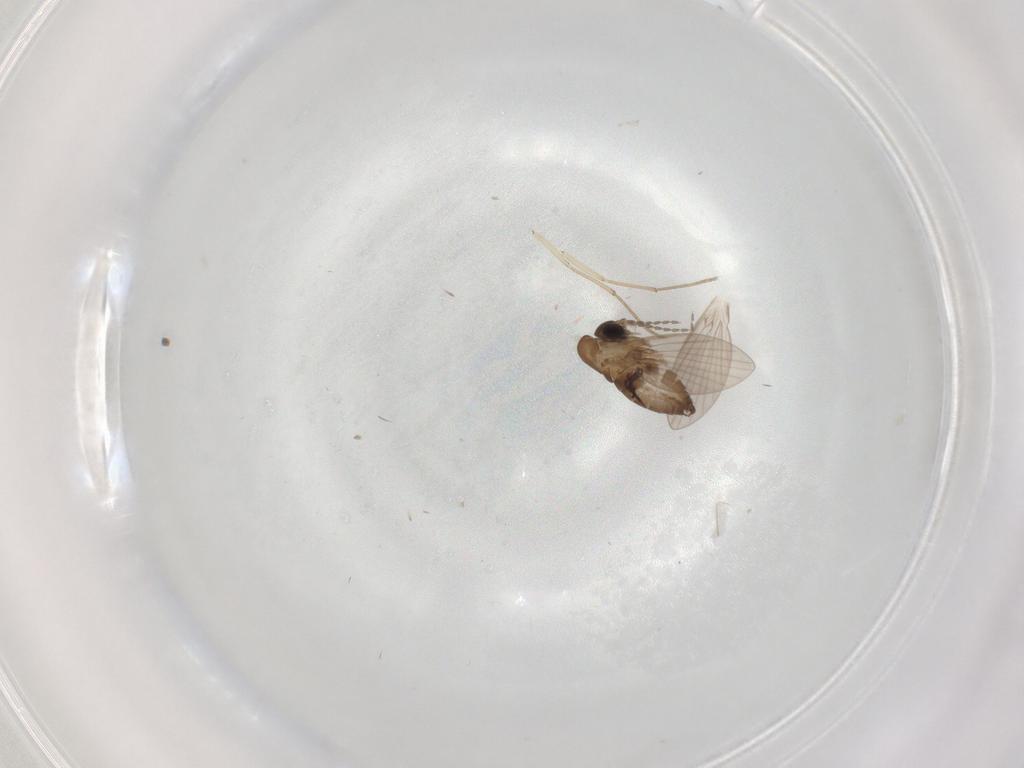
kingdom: Animalia
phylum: Arthropoda
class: Insecta
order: Diptera
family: Cecidomyiidae
